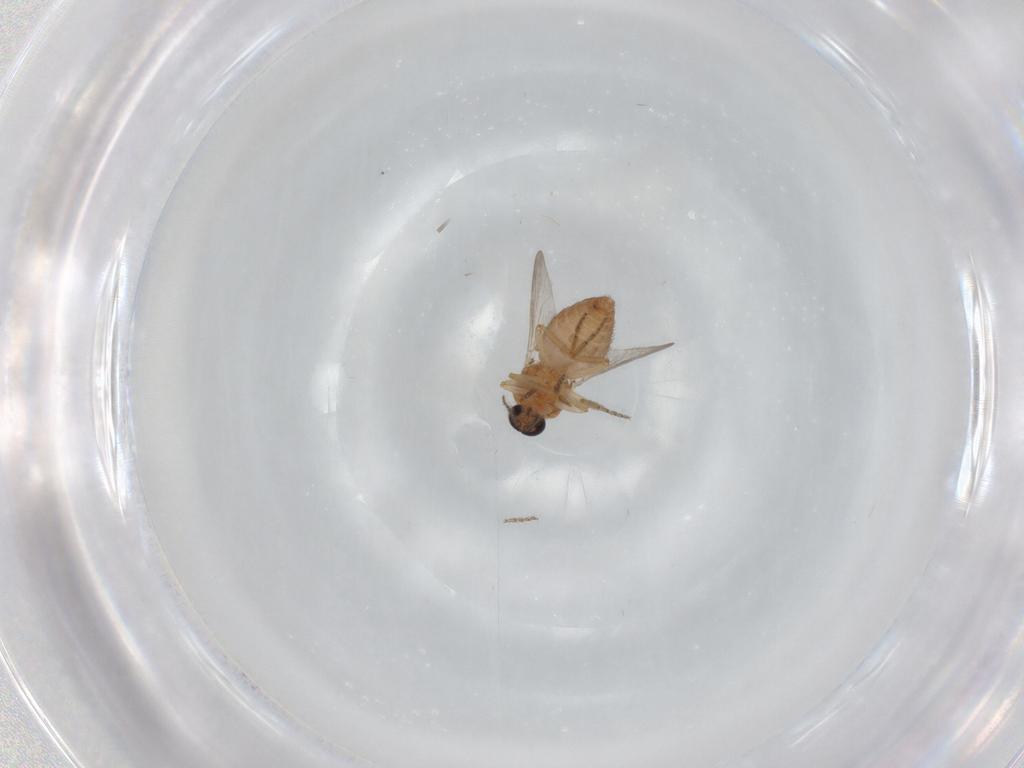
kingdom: Animalia
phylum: Arthropoda
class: Insecta
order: Diptera
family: Ceratopogonidae
